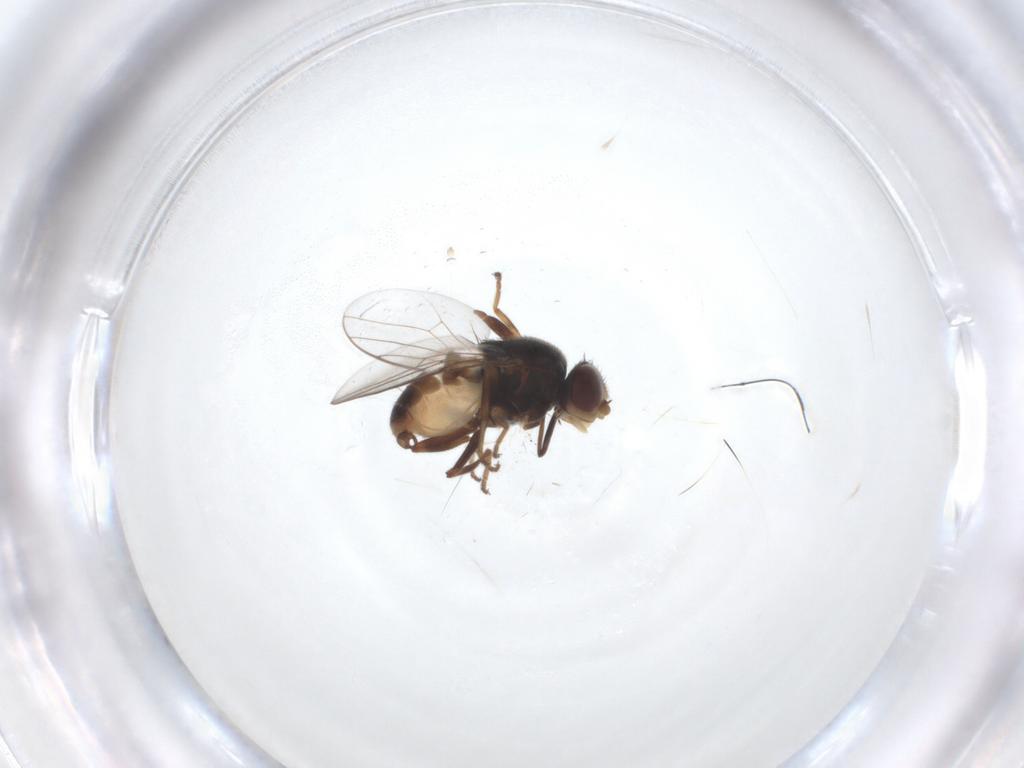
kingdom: Animalia
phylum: Arthropoda
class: Insecta
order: Diptera
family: Chloropidae
